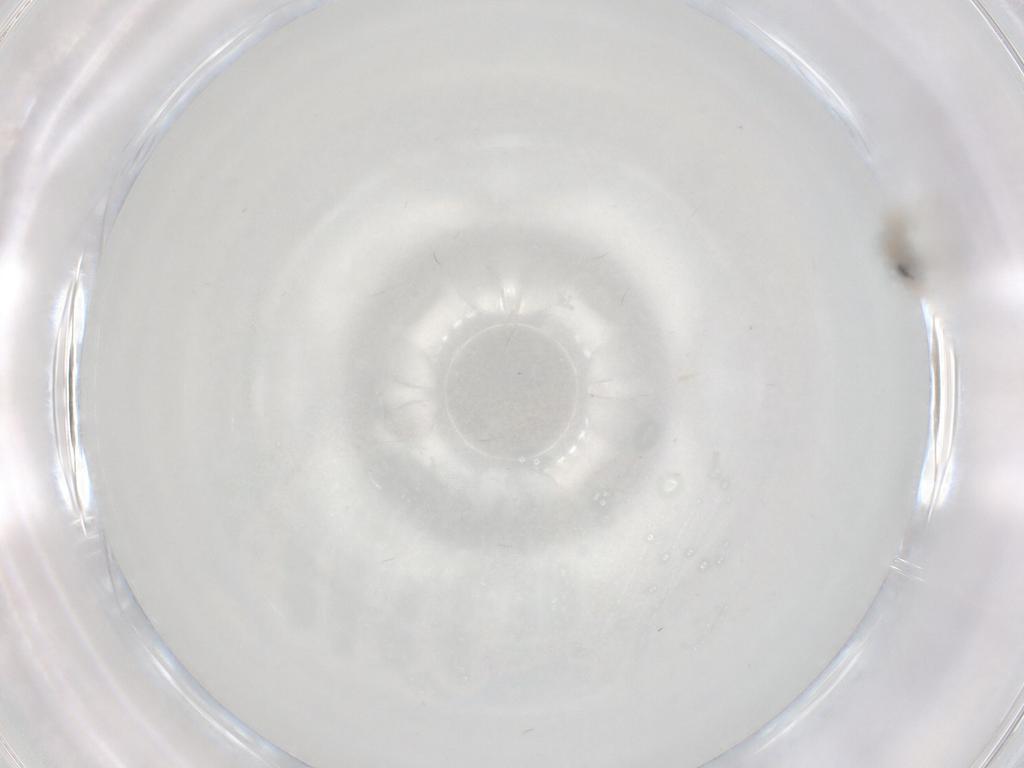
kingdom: Animalia
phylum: Arthropoda
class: Insecta
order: Diptera
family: Cecidomyiidae
